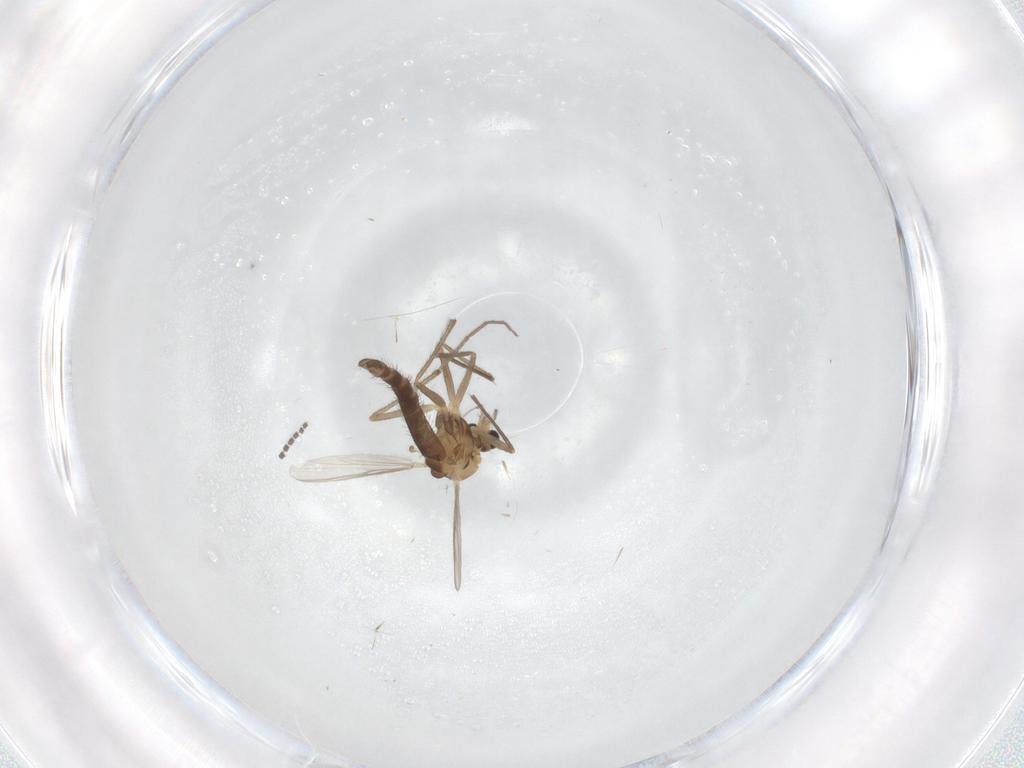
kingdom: Animalia
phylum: Arthropoda
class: Insecta
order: Diptera
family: Chironomidae
